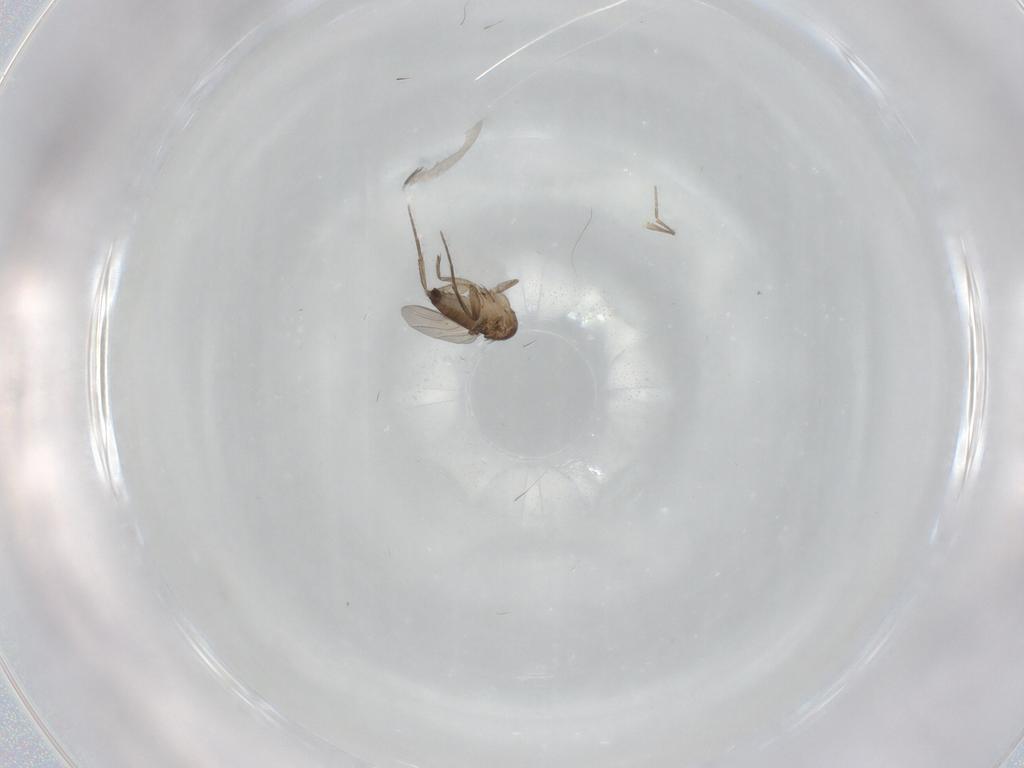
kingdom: Animalia
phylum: Arthropoda
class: Insecta
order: Diptera
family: Phoridae
